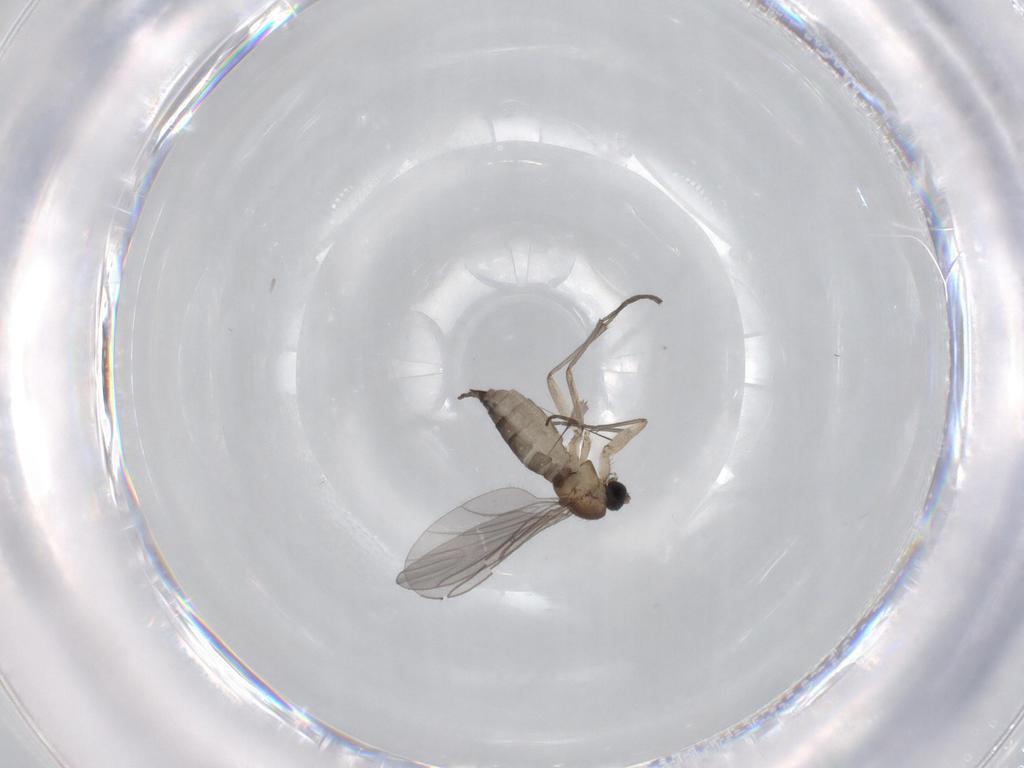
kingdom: Animalia
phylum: Arthropoda
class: Insecta
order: Diptera
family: Sciaridae
